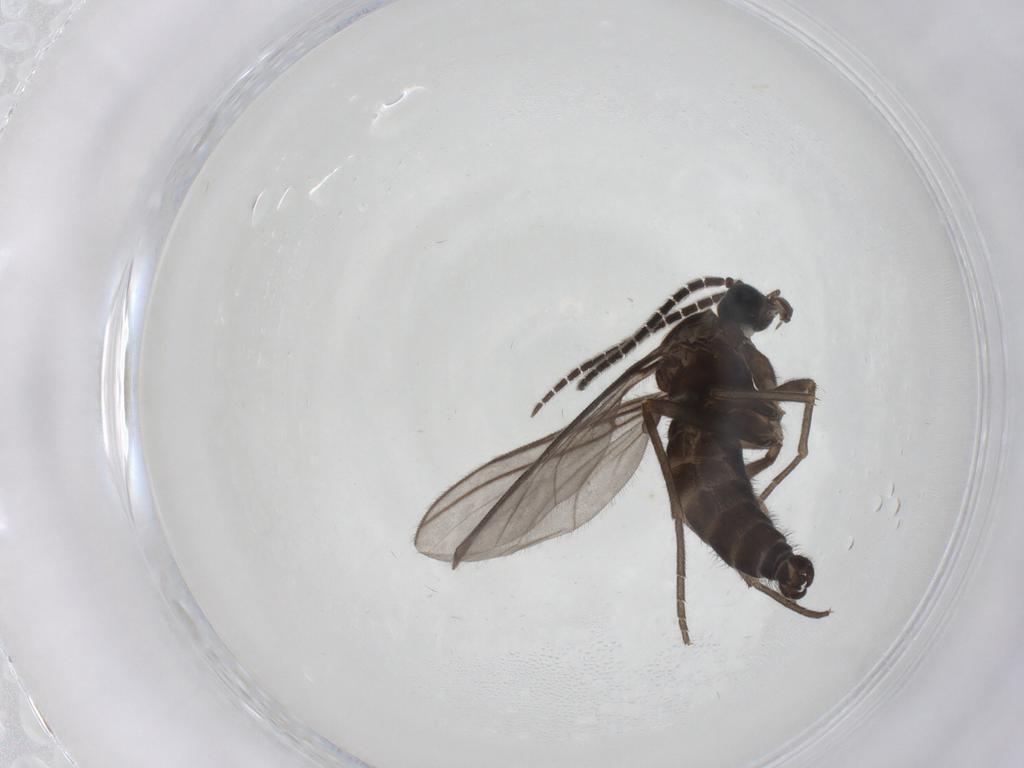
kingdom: Animalia
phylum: Arthropoda
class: Insecta
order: Diptera
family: Sciaridae
